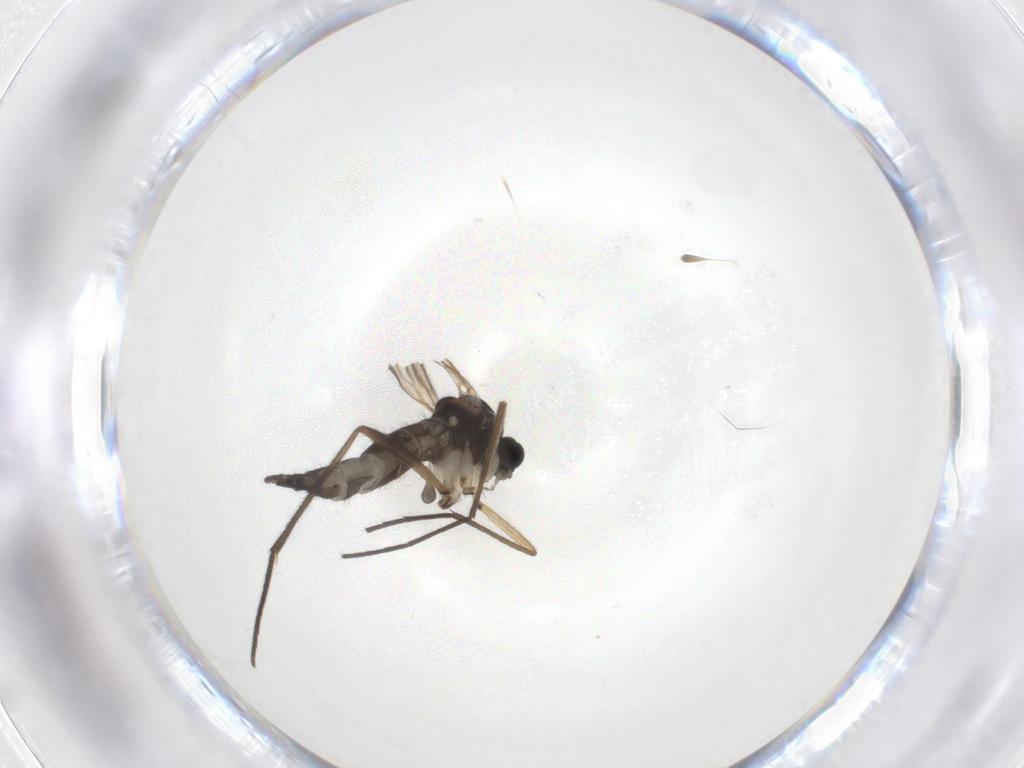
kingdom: Animalia
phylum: Arthropoda
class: Insecta
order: Diptera
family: Sciaridae
